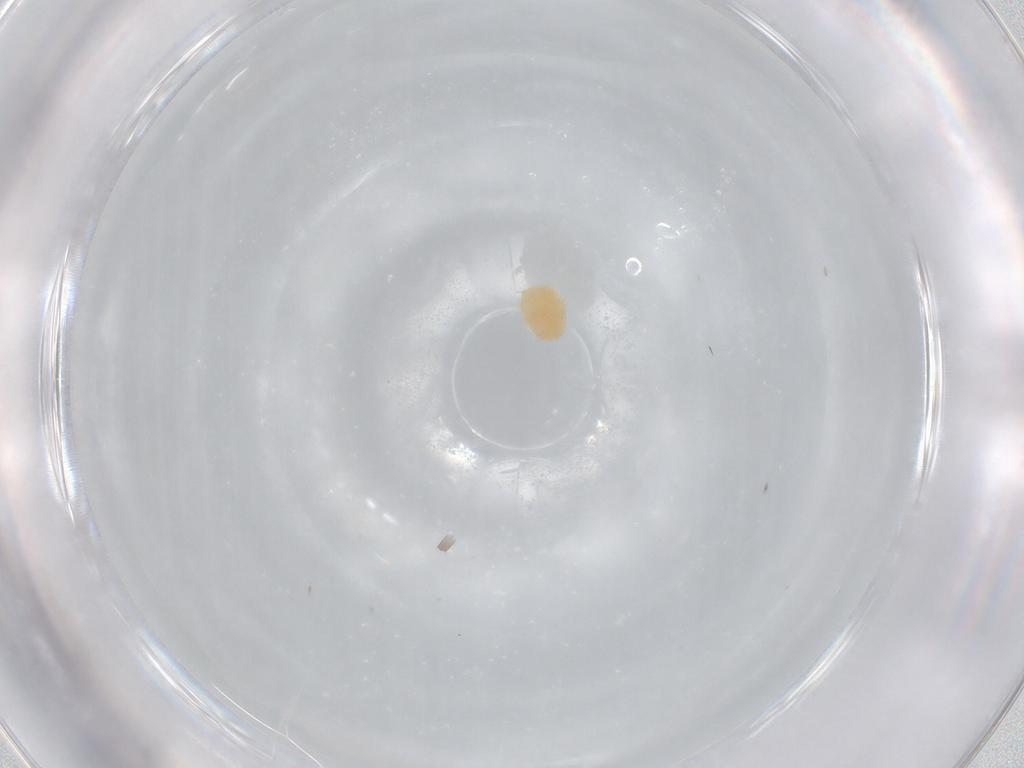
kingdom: Animalia
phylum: Arthropoda
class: Arachnida
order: Trombidiformes
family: Microtrombidiidae
